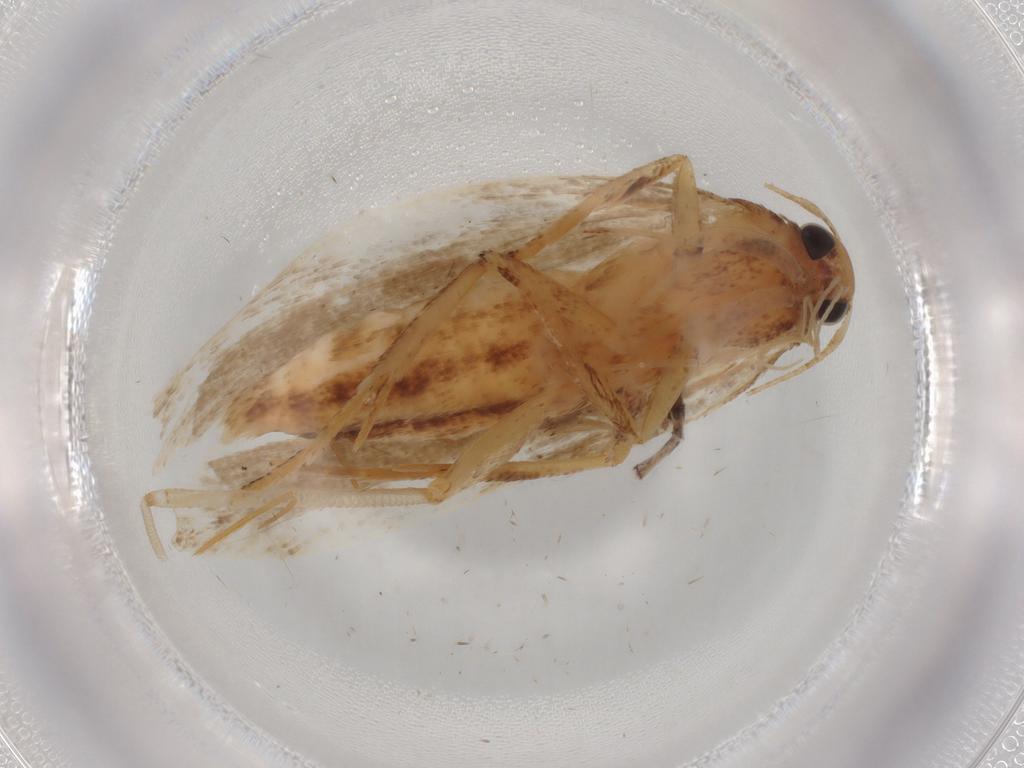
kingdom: Animalia
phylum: Arthropoda
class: Insecta
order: Lepidoptera
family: Gelechiidae
